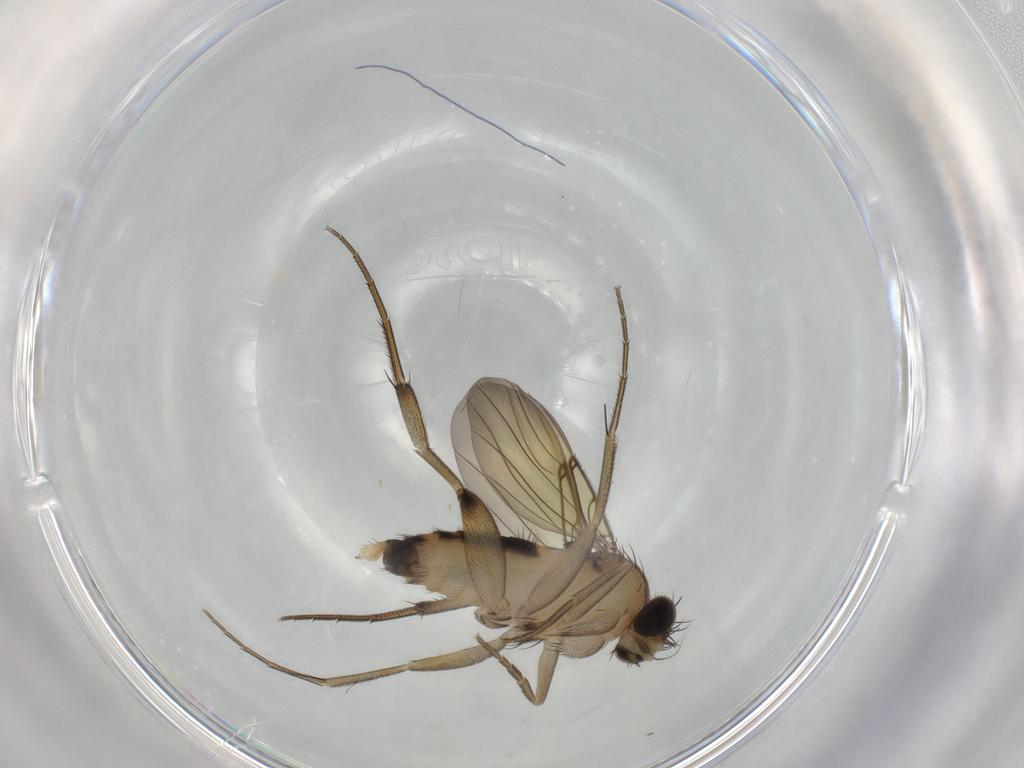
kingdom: Animalia
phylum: Arthropoda
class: Insecta
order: Diptera
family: Phoridae
